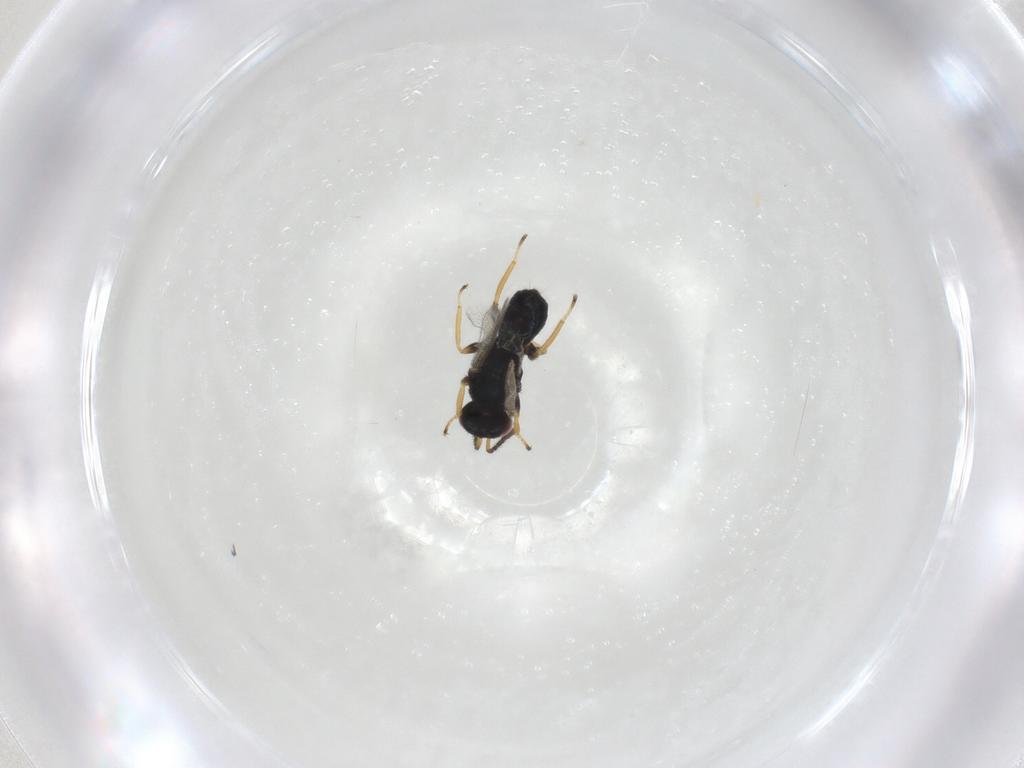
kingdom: Animalia
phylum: Arthropoda
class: Insecta
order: Hymenoptera
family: Eulophidae
